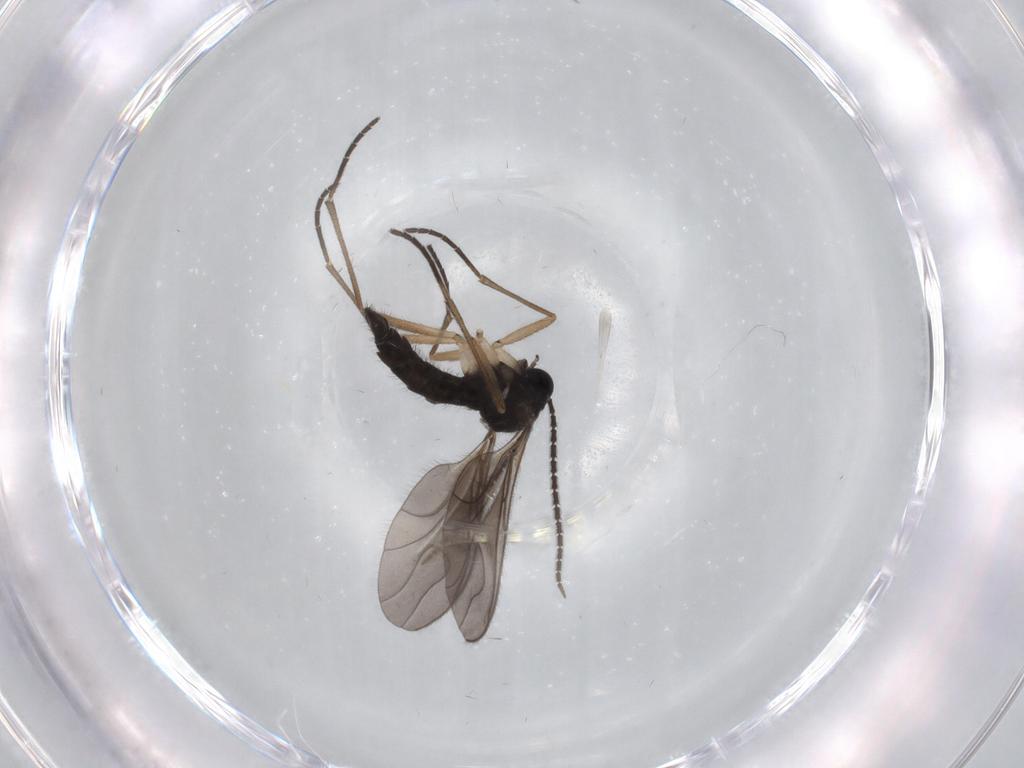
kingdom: Animalia
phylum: Arthropoda
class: Insecta
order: Diptera
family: Sciaridae
